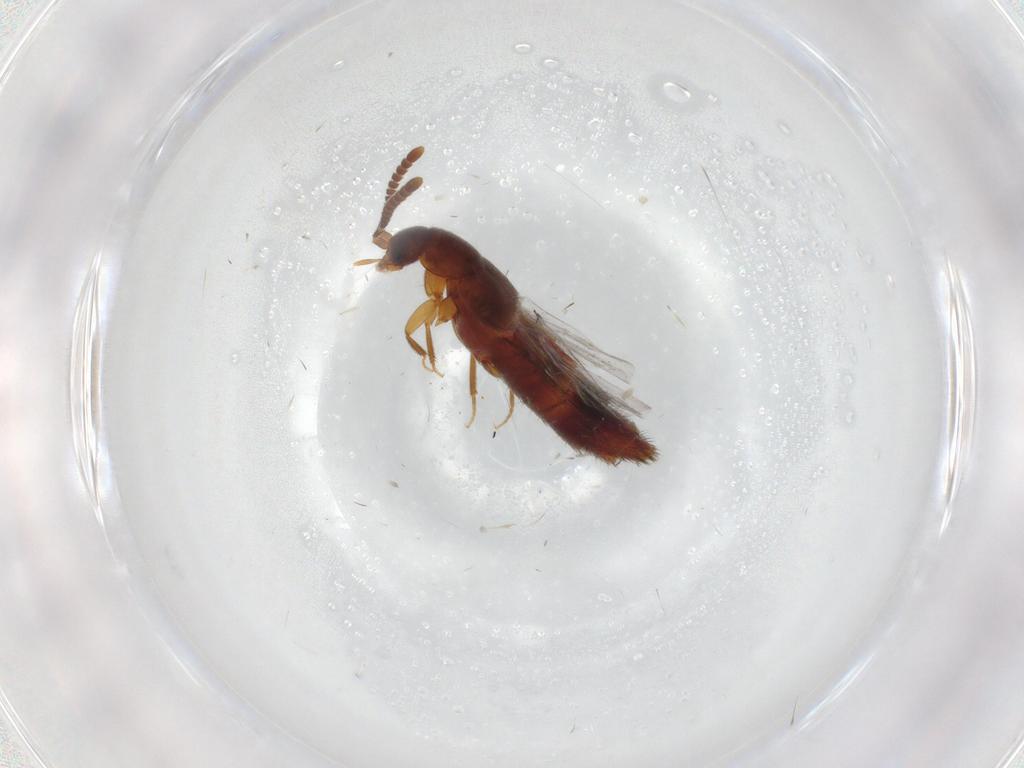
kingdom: Animalia
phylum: Arthropoda
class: Insecta
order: Coleoptera
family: Staphylinidae
